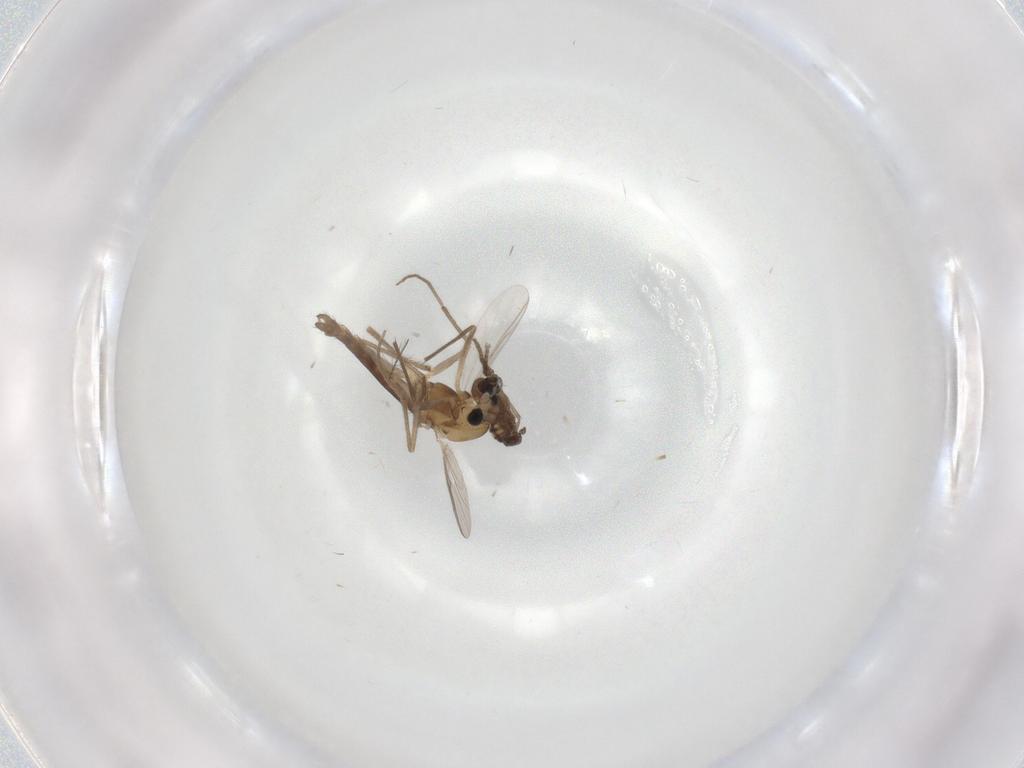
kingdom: Animalia
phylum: Arthropoda
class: Insecta
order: Diptera
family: Chironomidae
